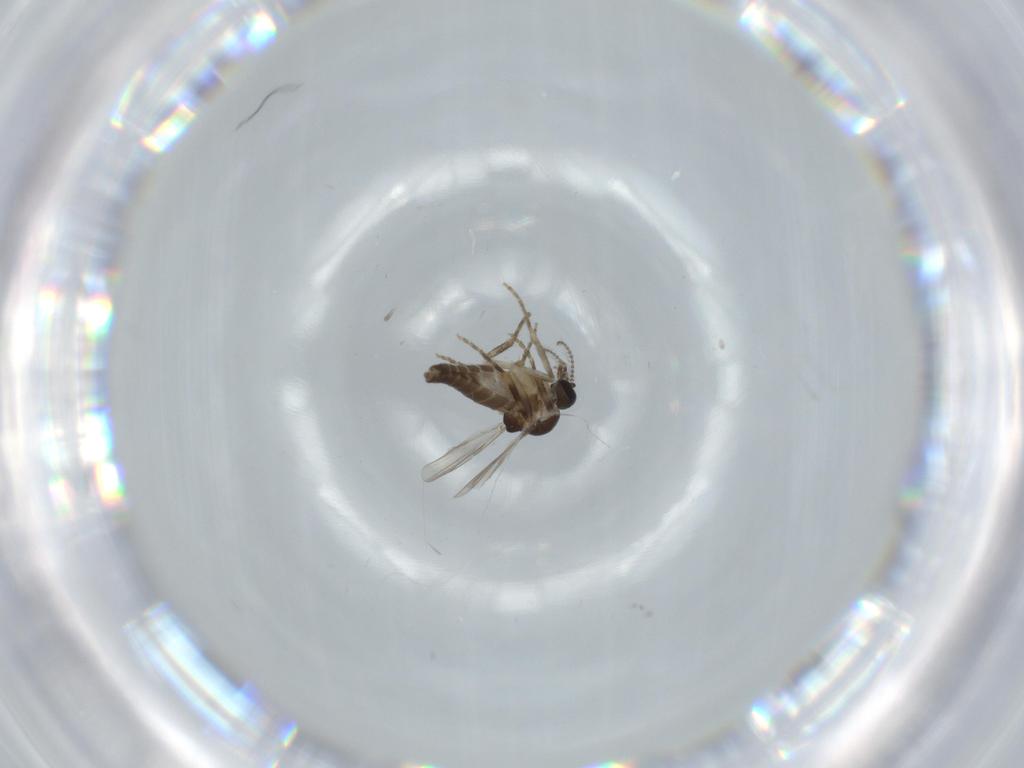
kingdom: Animalia
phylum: Arthropoda
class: Insecta
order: Diptera
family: Ceratopogonidae
